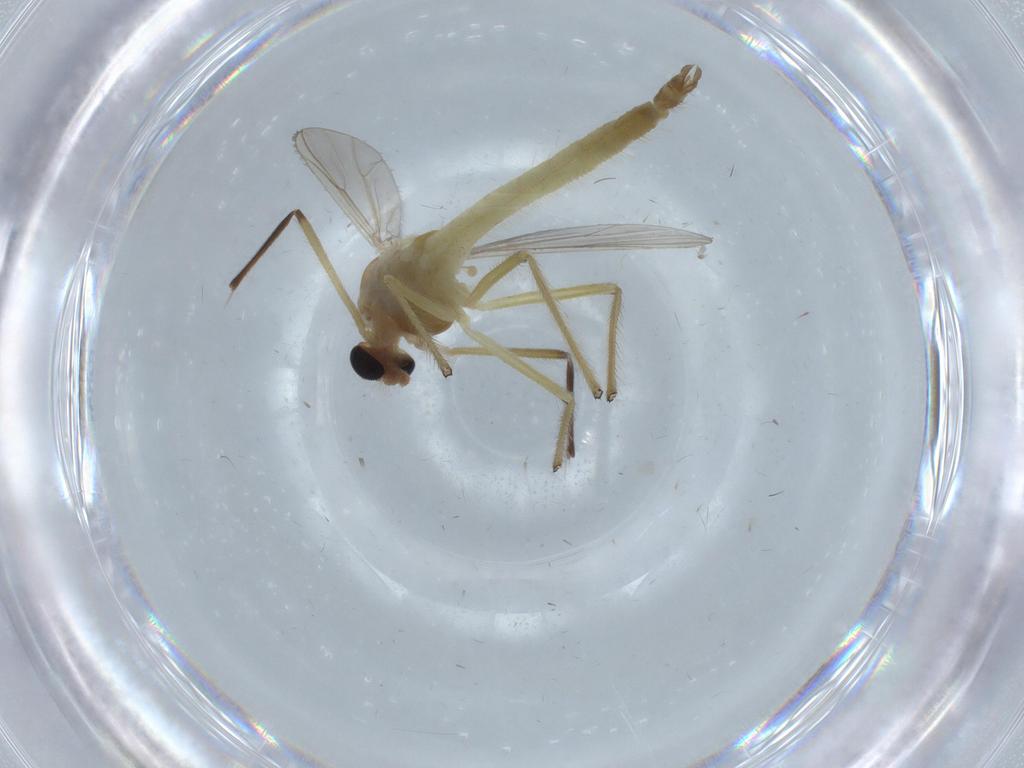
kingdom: Animalia
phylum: Arthropoda
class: Insecta
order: Diptera
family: Chironomidae
